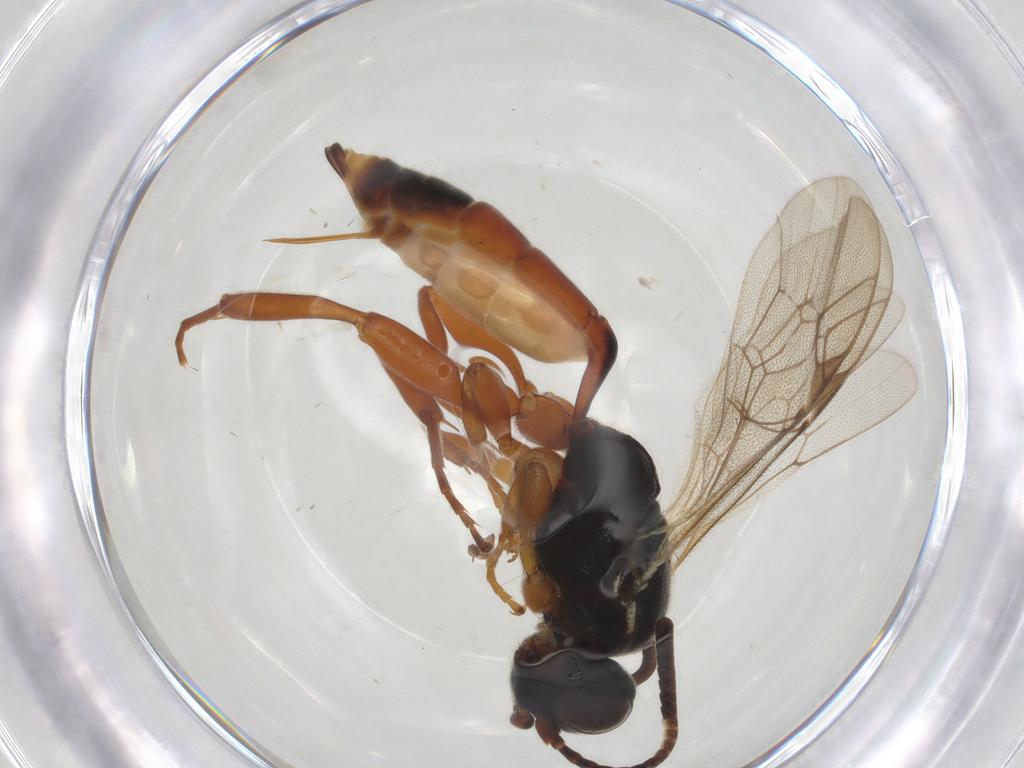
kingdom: Animalia
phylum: Arthropoda
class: Insecta
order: Hymenoptera
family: Ichneumonidae
